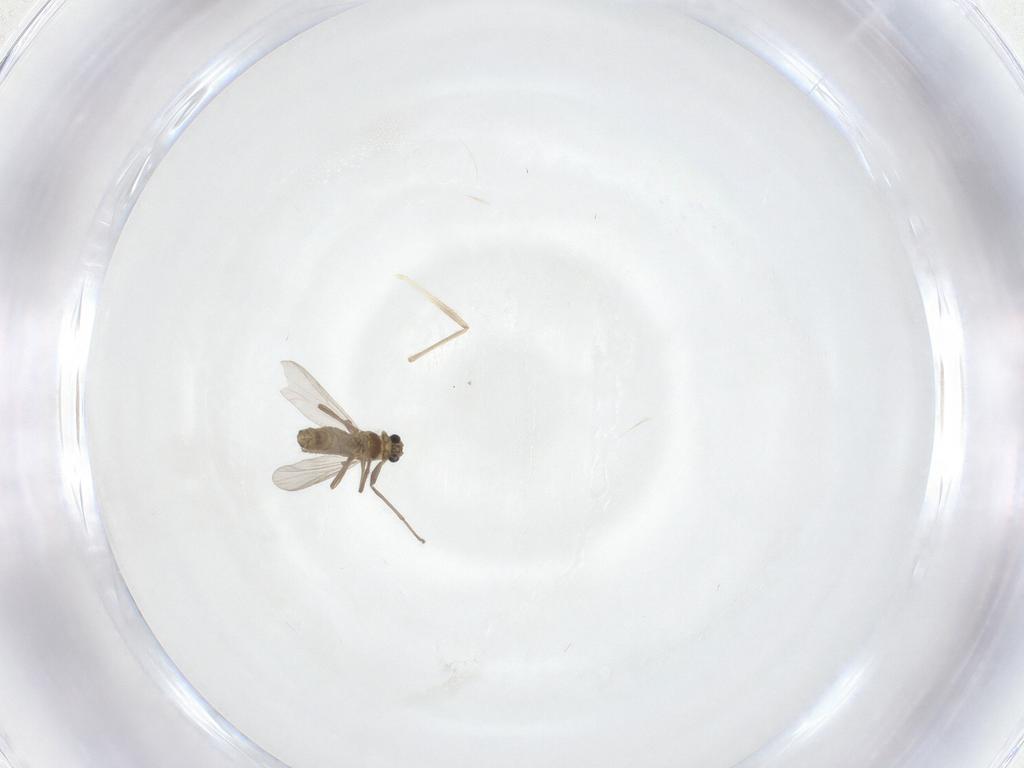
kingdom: Animalia
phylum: Arthropoda
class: Insecta
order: Diptera
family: Chironomidae
